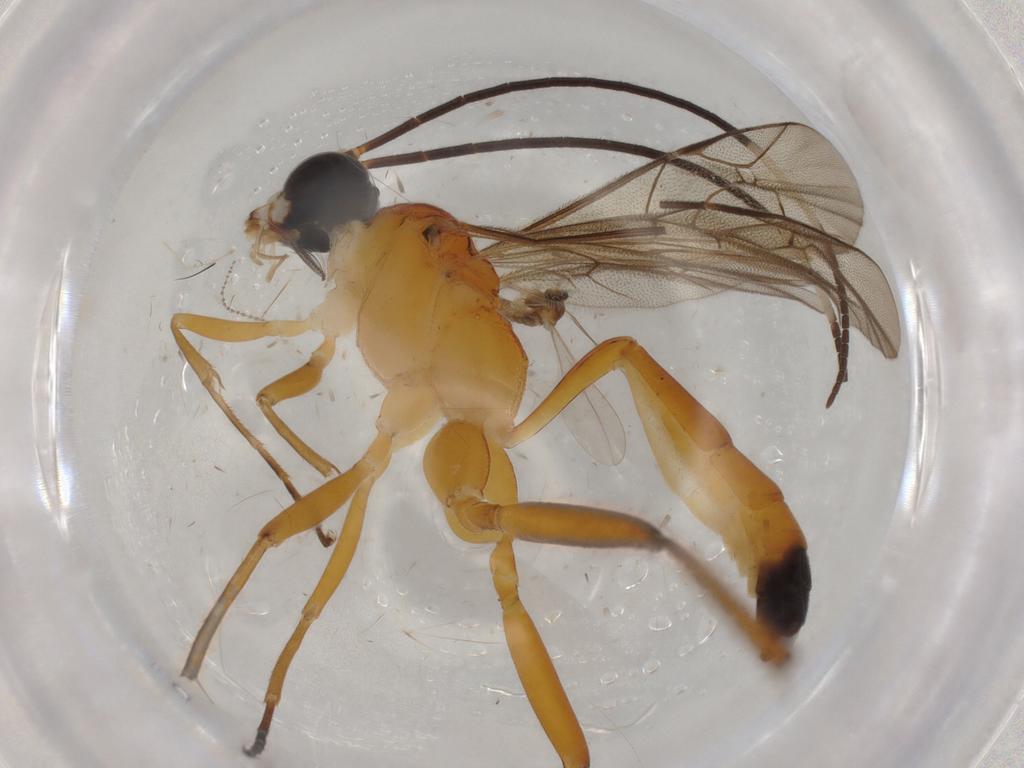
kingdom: Animalia
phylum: Arthropoda
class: Insecta
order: Diptera
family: Cecidomyiidae
